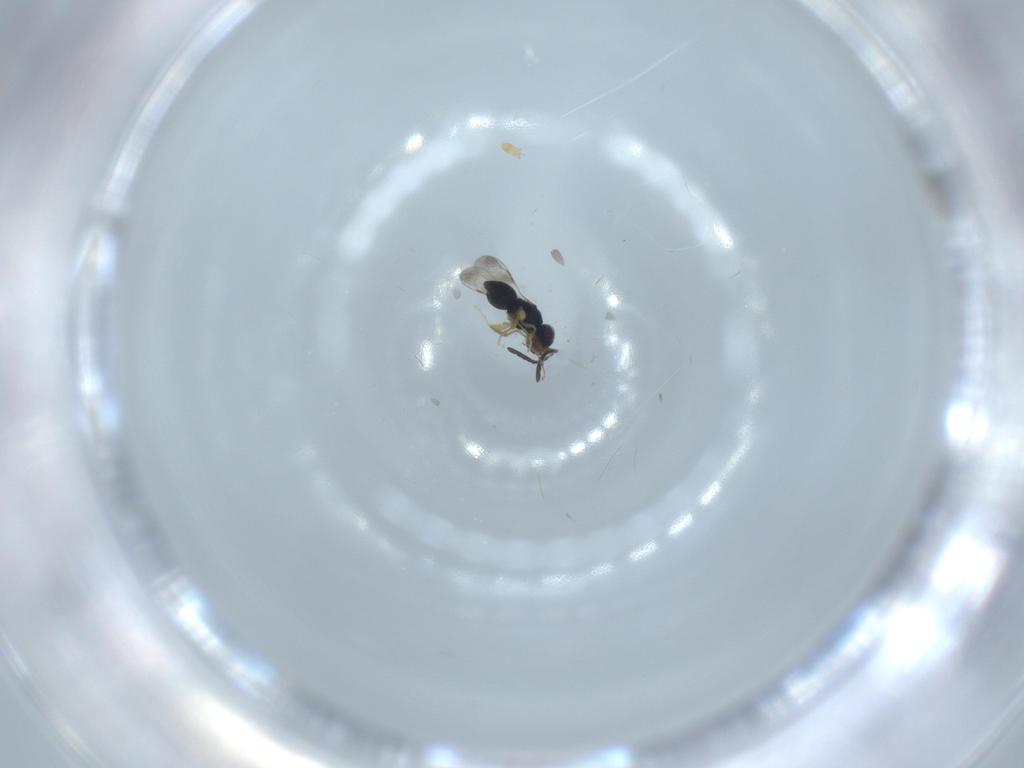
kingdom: Animalia
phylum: Arthropoda
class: Insecta
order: Hymenoptera
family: Ceraphronidae
